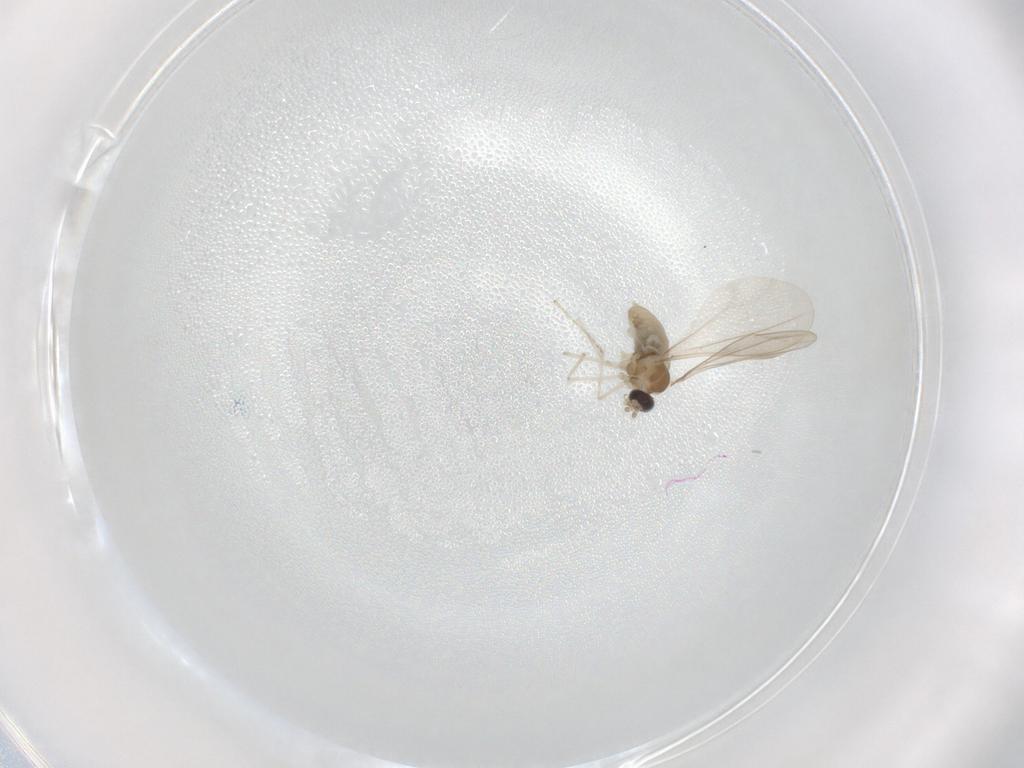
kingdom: Animalia
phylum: Arthropoda
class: Insecta
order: Diptera
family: Cecidomyiidae
